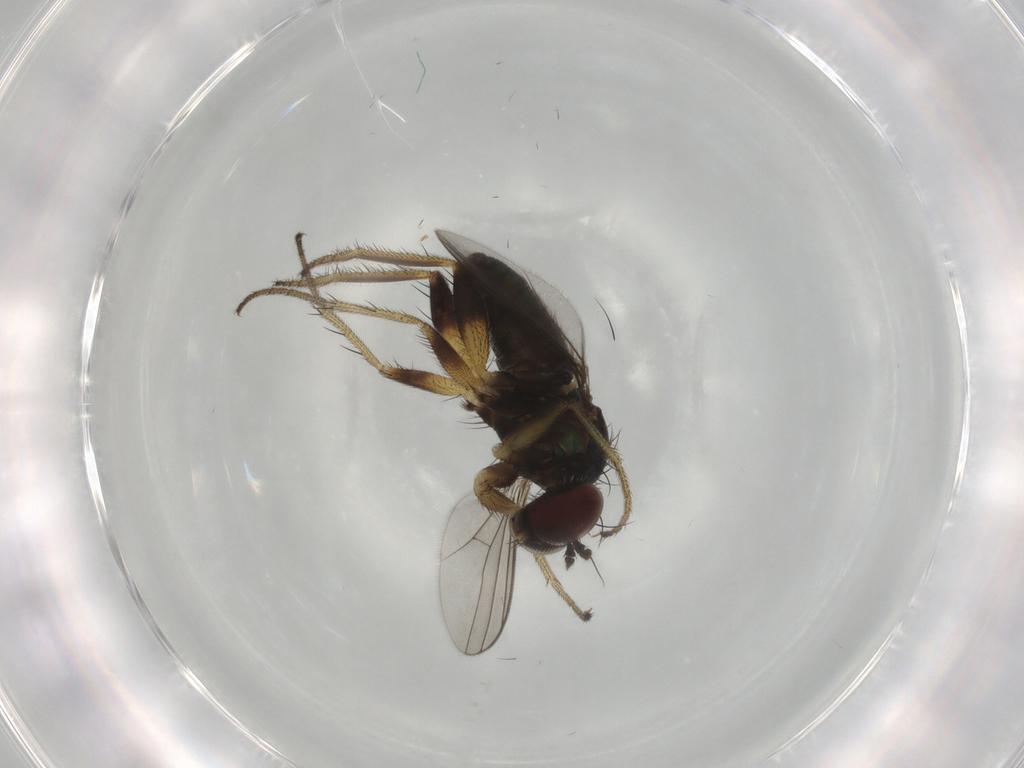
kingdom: Animalia
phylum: Arthropoda
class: Insecta
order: Diptera
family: Dolichopodidae
